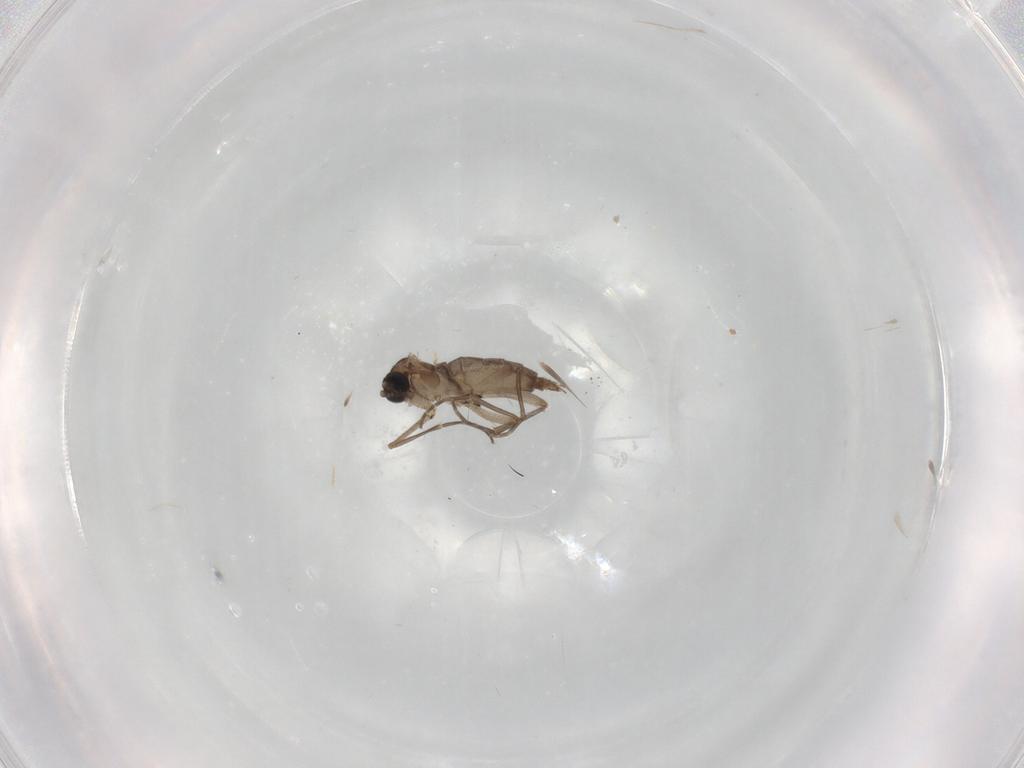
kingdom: Animalia
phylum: Arthropoda
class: Insecta
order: Diptera
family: Sciaridae
